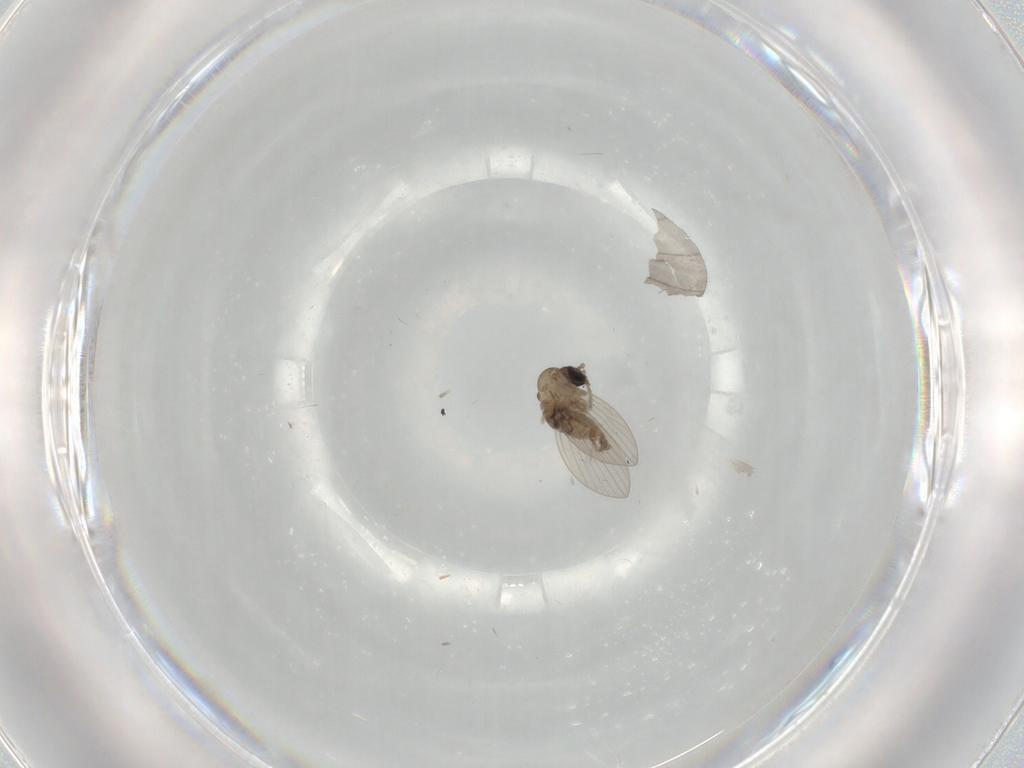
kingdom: Animalia
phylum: Arthropoda
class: Insecta
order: Diptera
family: Psychodidae
